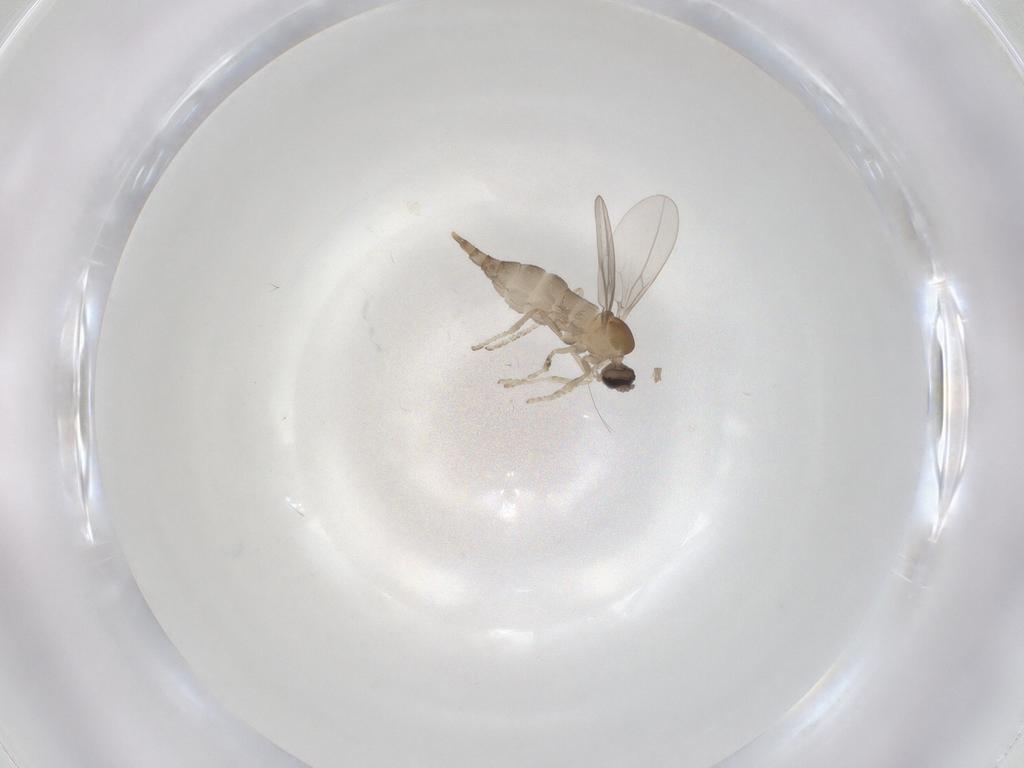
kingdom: Animalia
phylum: Arthropoda
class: Insecta
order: Diptera
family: Cecidomyiidae
